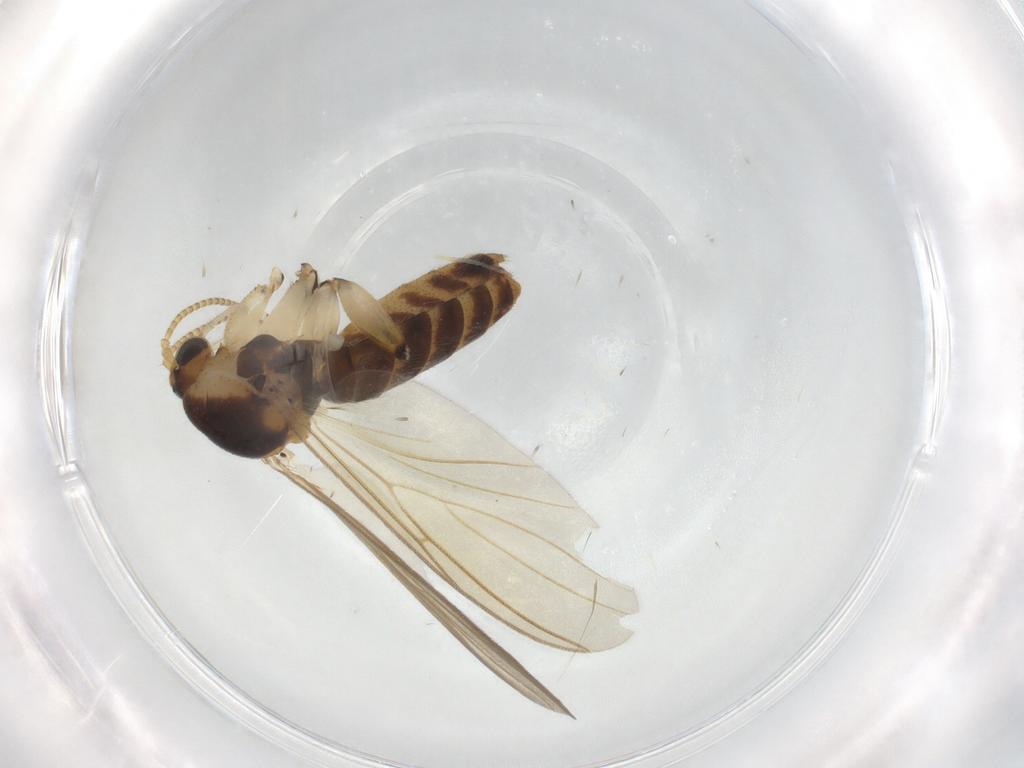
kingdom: Animalia
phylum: Arthropoda
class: Insecta
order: Diptera
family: Mycetophilidae
